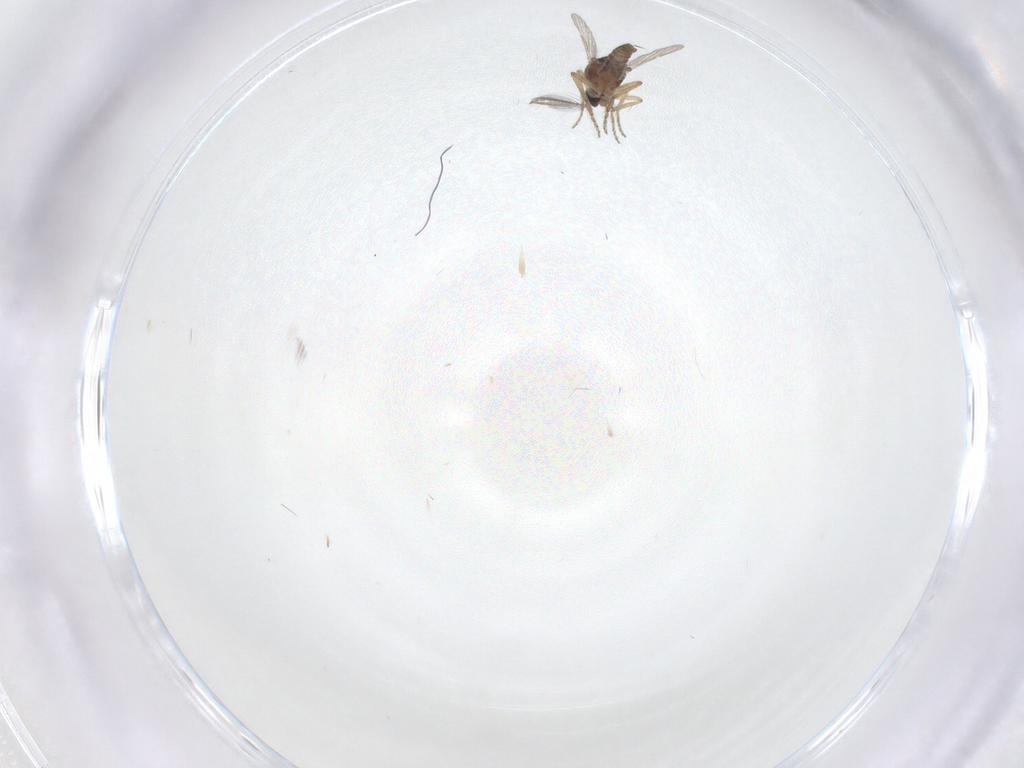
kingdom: Animalia
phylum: Arthropoda
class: Insecta
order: Diptera
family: Ceratopogonidae
